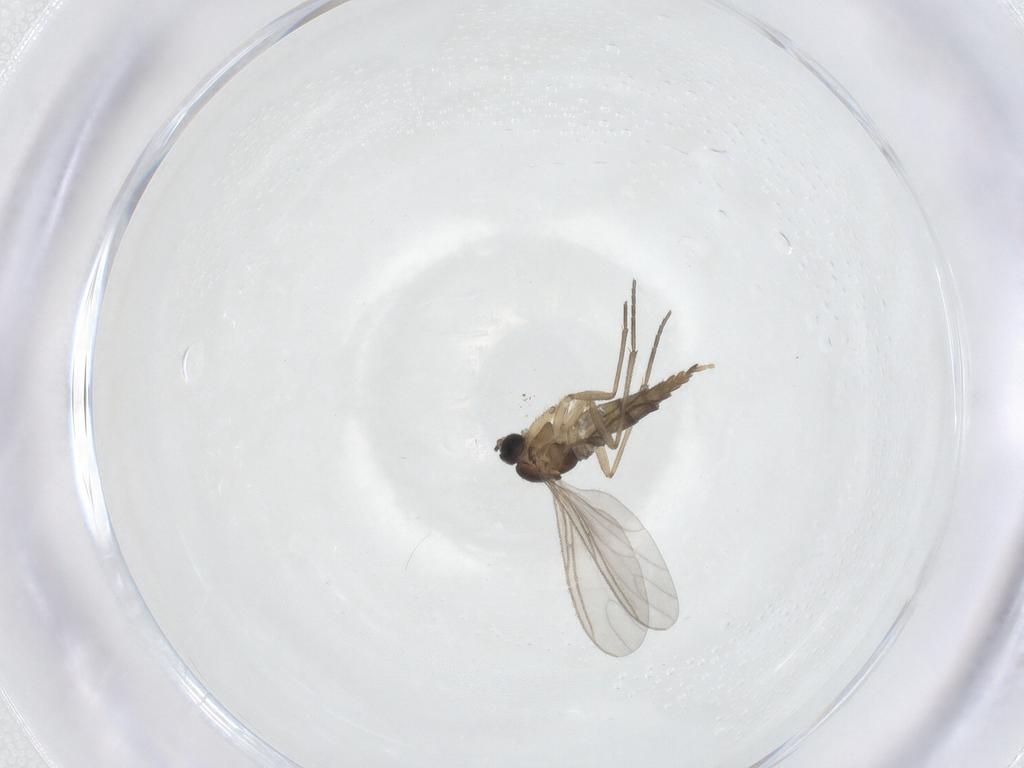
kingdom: Animalia
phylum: Arthropoda
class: Insecta
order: Diptera
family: Sciaridae
